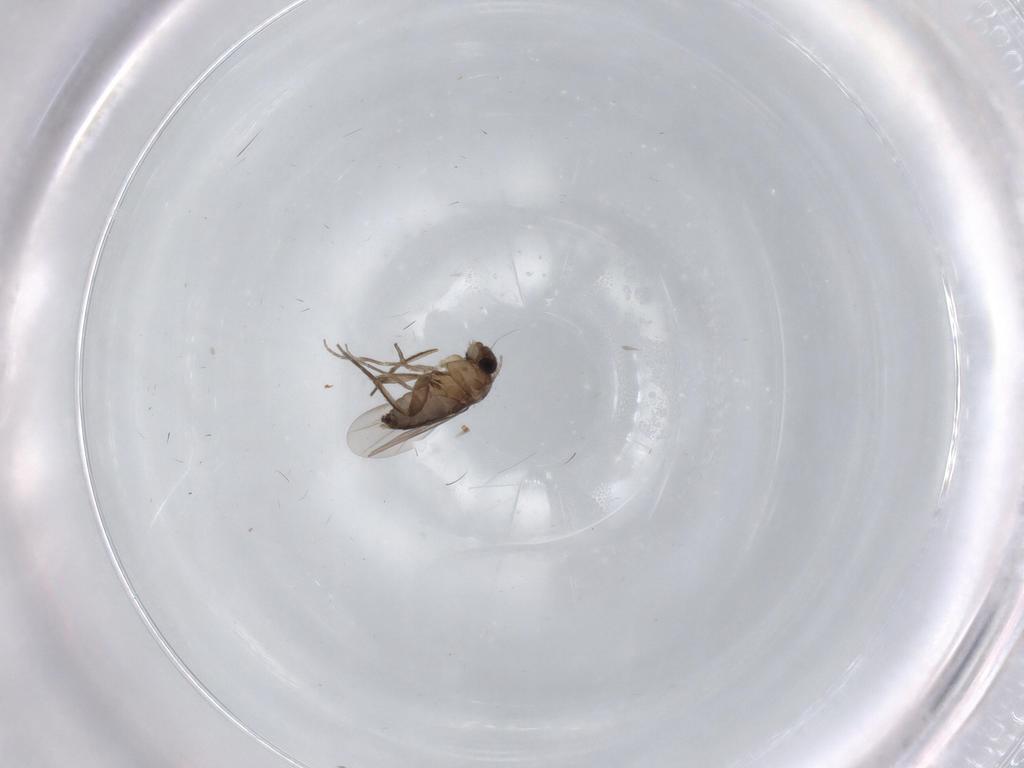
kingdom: Animalia
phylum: Arthropoda
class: Insecta
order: Diptera
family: Phoridae
